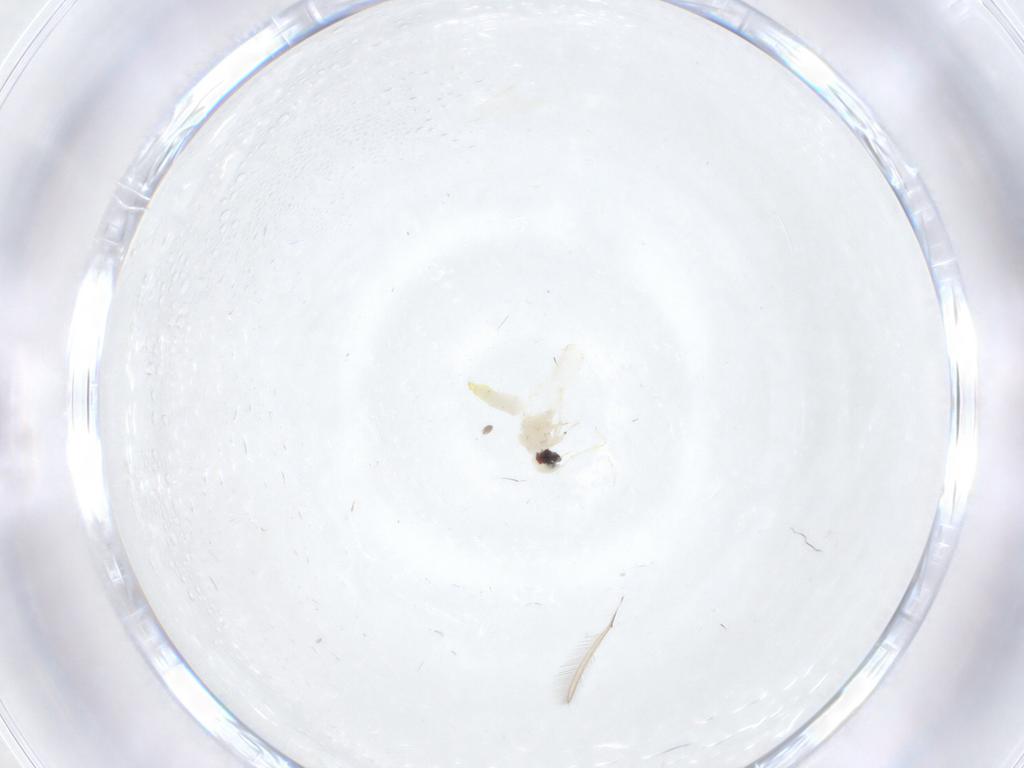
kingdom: Animalia
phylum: Arthropoda
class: Insecta
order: Hemiptera
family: Aleyrodidae
